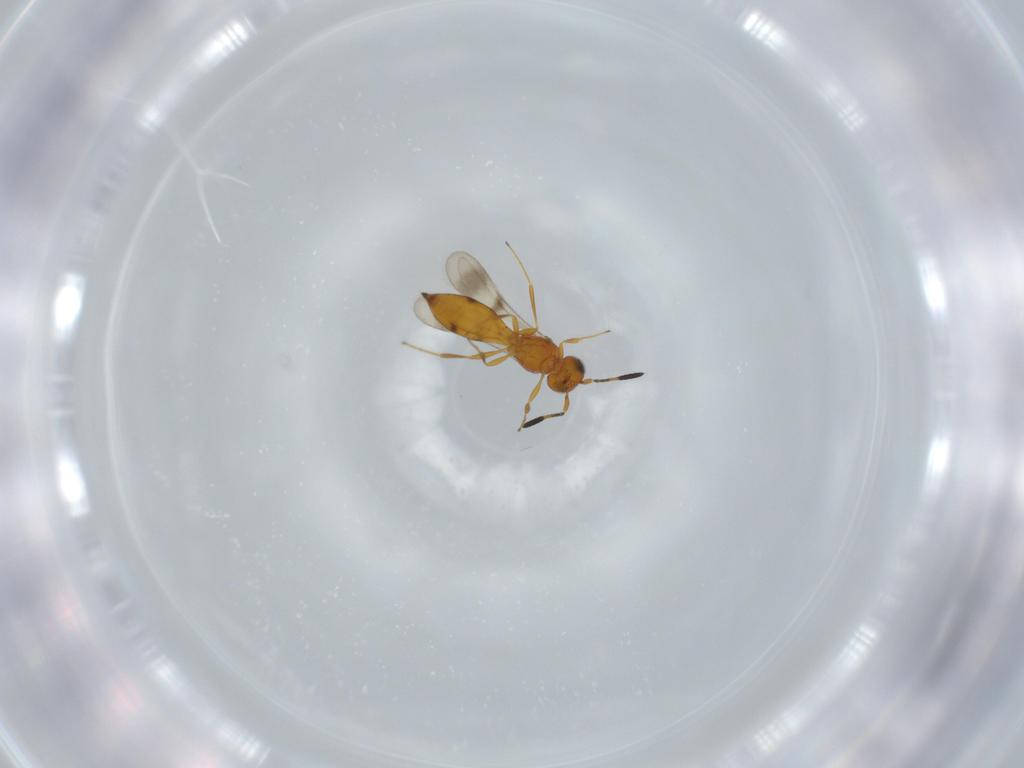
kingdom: Animalia
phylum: Arthropoda
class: Insecta
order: Hymenoptera
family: Scelionidae
